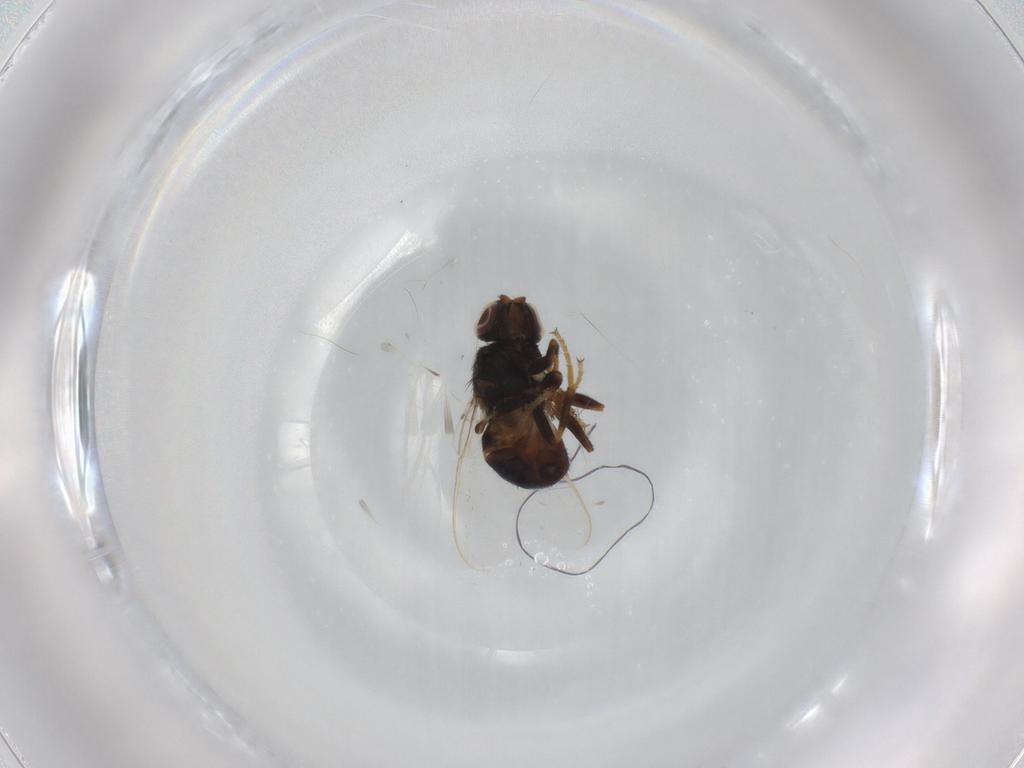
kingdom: Animalia
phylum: Arthropoda
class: Insecta
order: Diptera
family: Chloropidae
